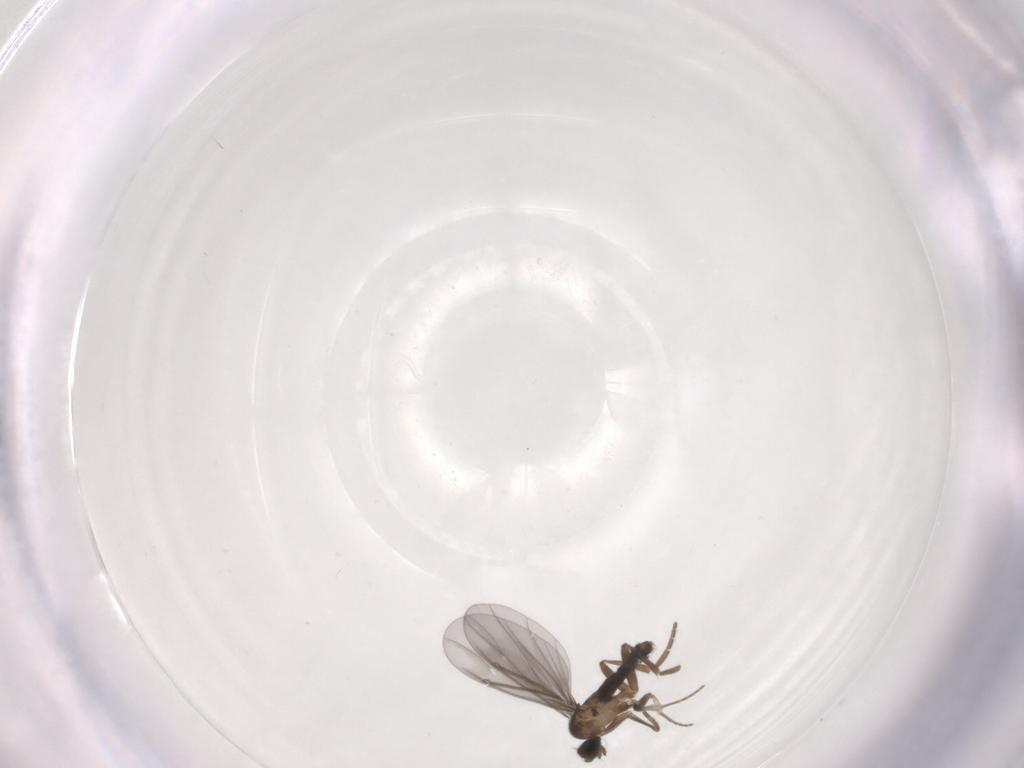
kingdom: Animalia
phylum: Arthropoda
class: Insecta
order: Diptera
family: Phoridae
